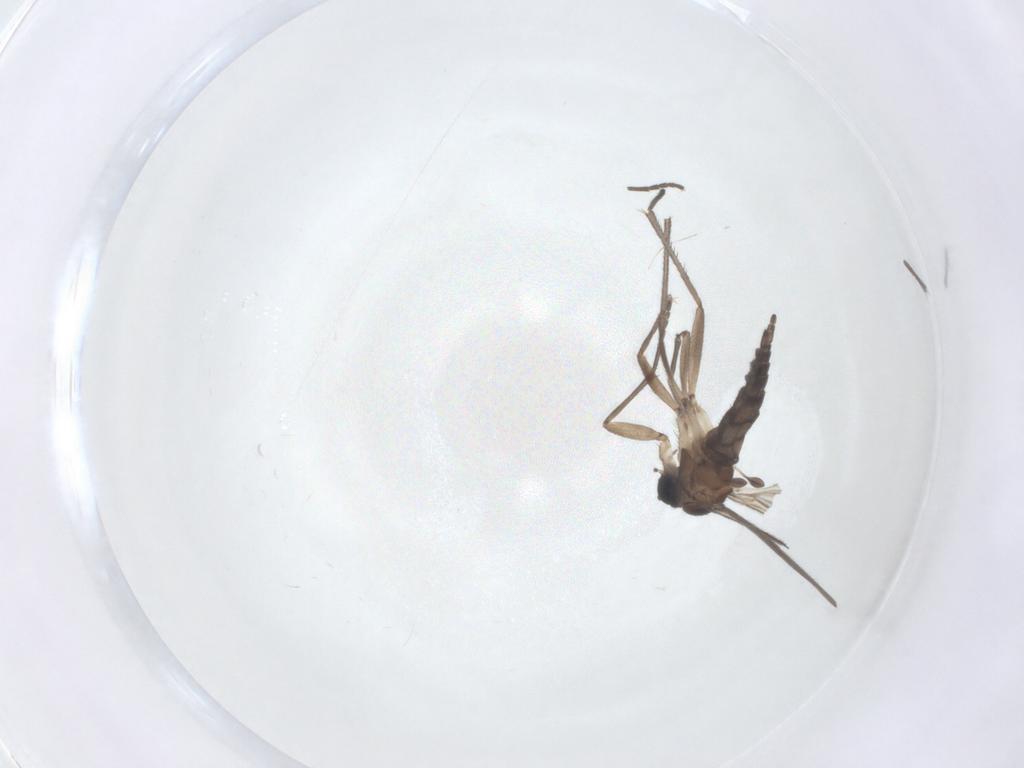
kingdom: Animalia
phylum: Arthropoda
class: Insecta
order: Diptera
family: Sciaridae
